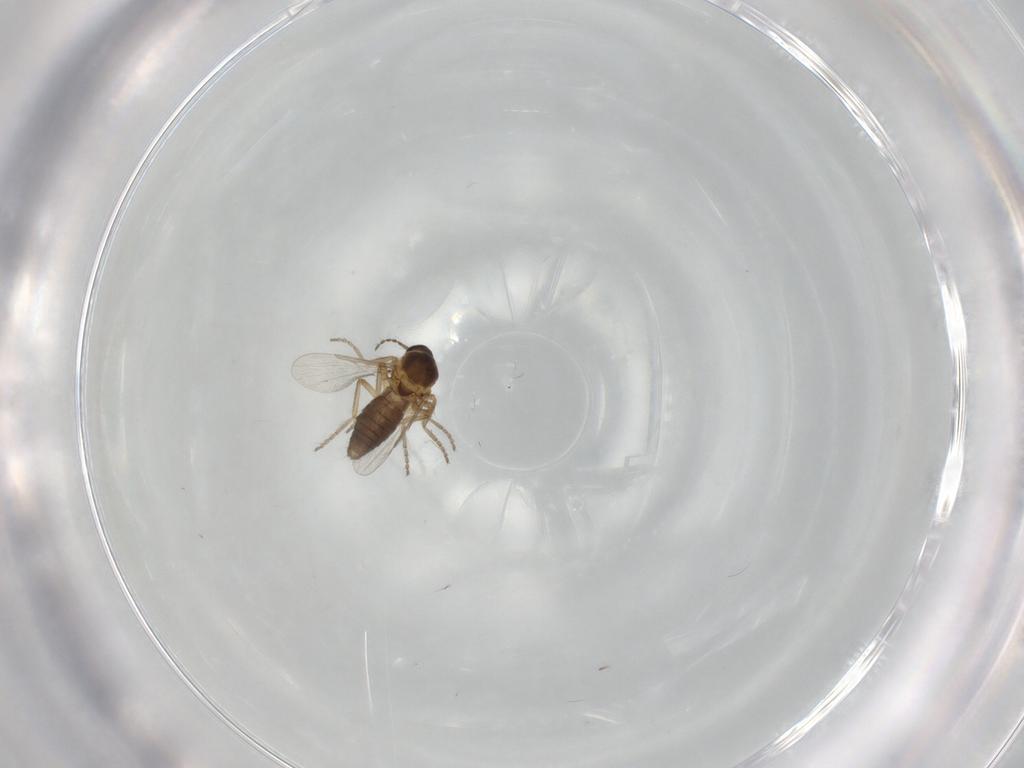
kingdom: Animalia
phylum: Arthropoda
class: Insecta
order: Diptera
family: Ceratopogonidae
